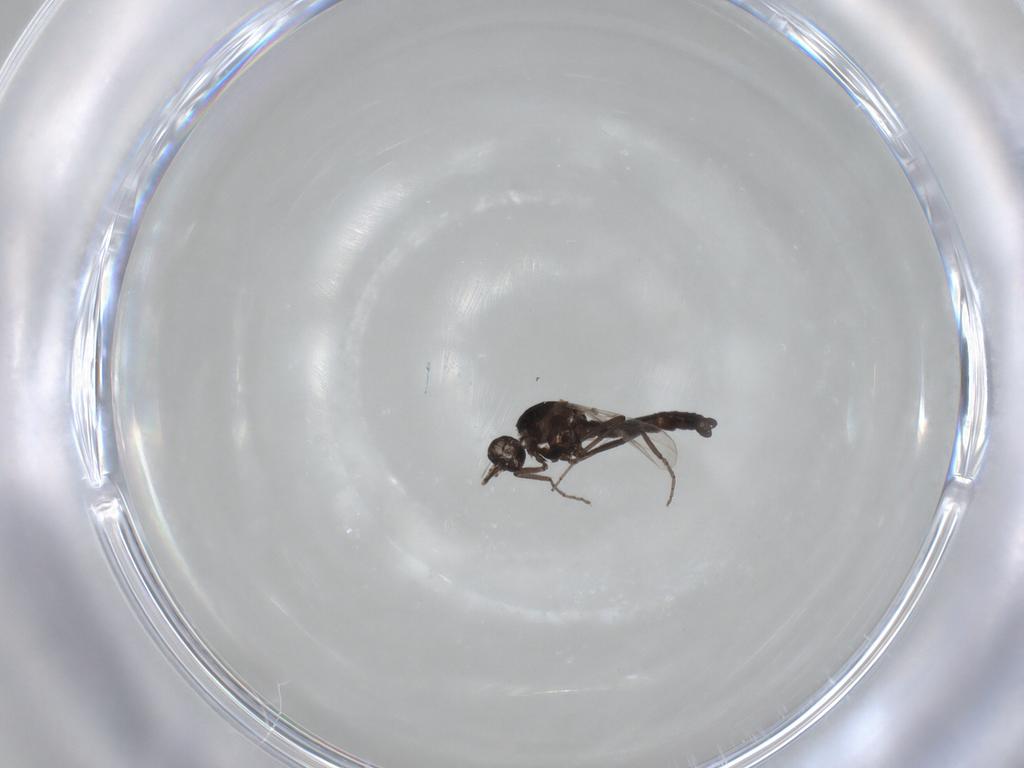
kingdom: Animalia
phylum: Arthropoda
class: Insecta
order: Diptera
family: Ceratopogonidae
